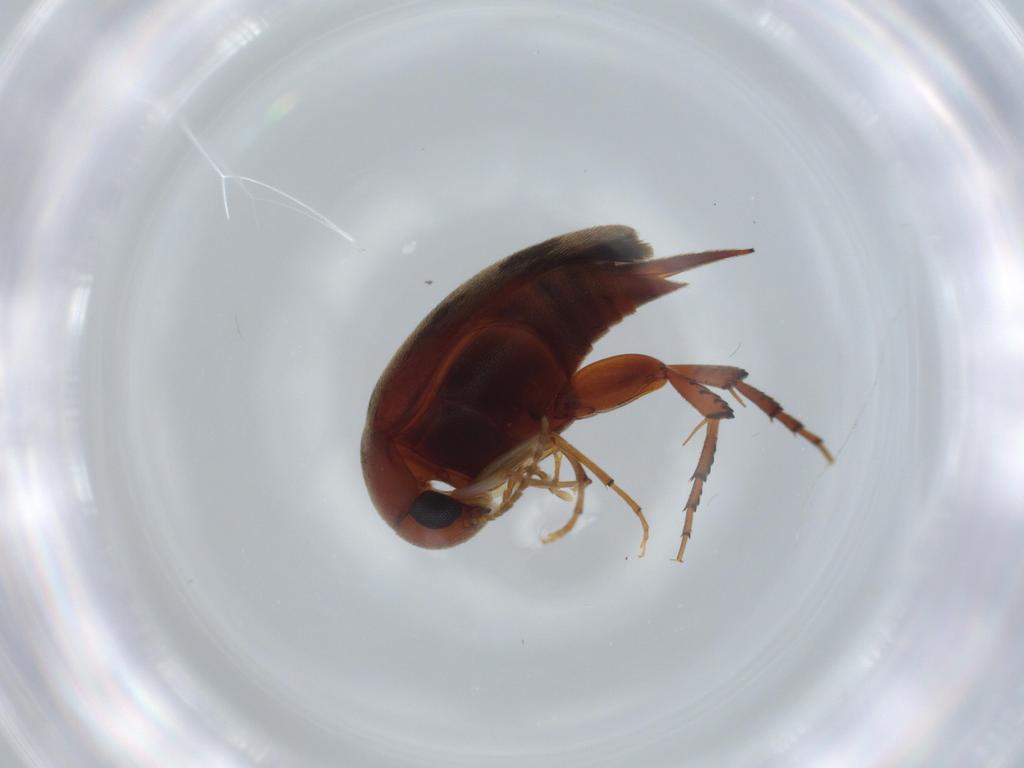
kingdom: Animalia
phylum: Arthropoda
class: Insecta
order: Coleoptera
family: Chrysomelidae
